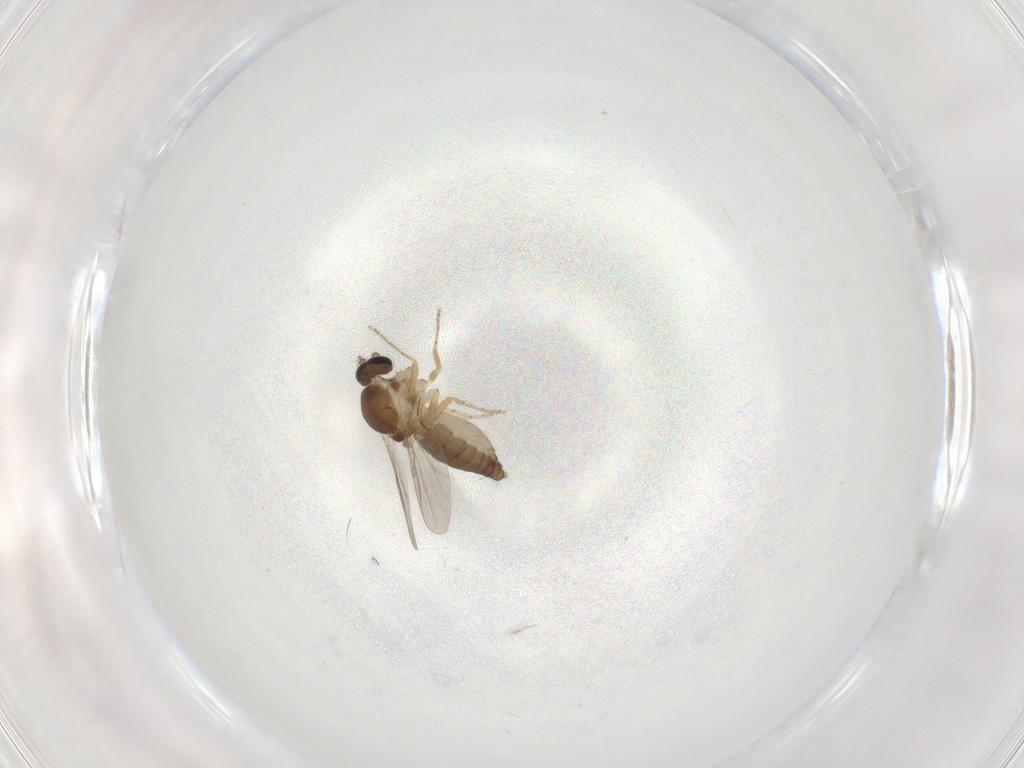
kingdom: Animalia
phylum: Arthropoda
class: Insecta
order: Diptera
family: Ceratopogonidae
